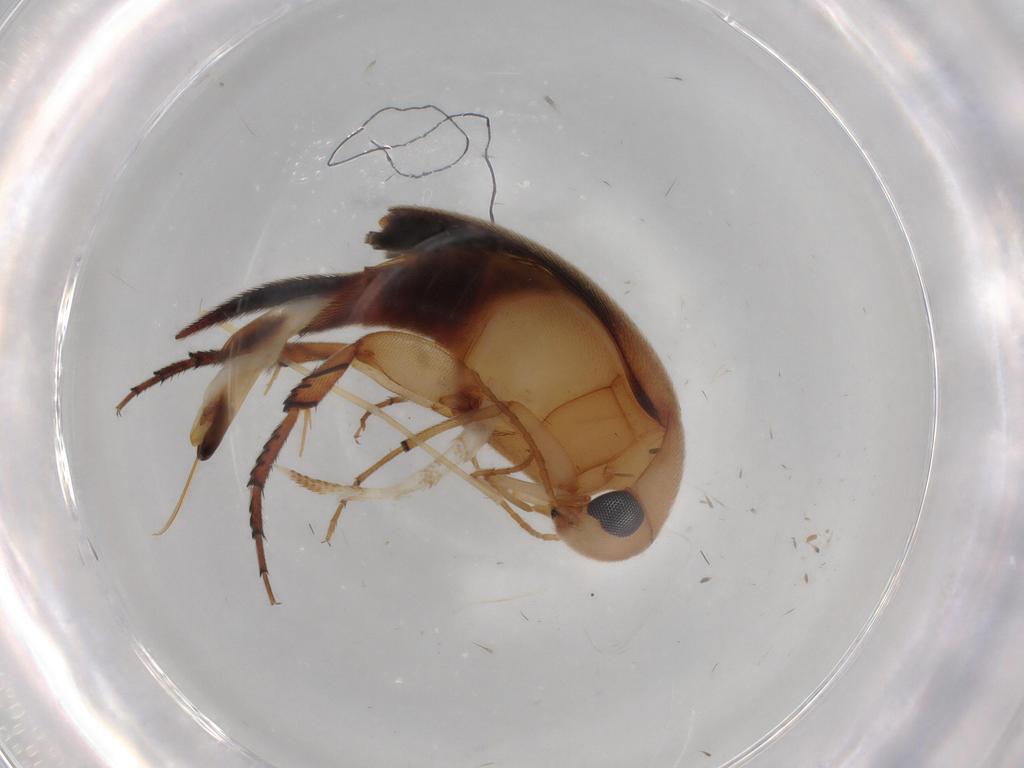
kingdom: Animalia
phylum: Arthropoda
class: Insecta
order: Coleoptera
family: Mordellidae
